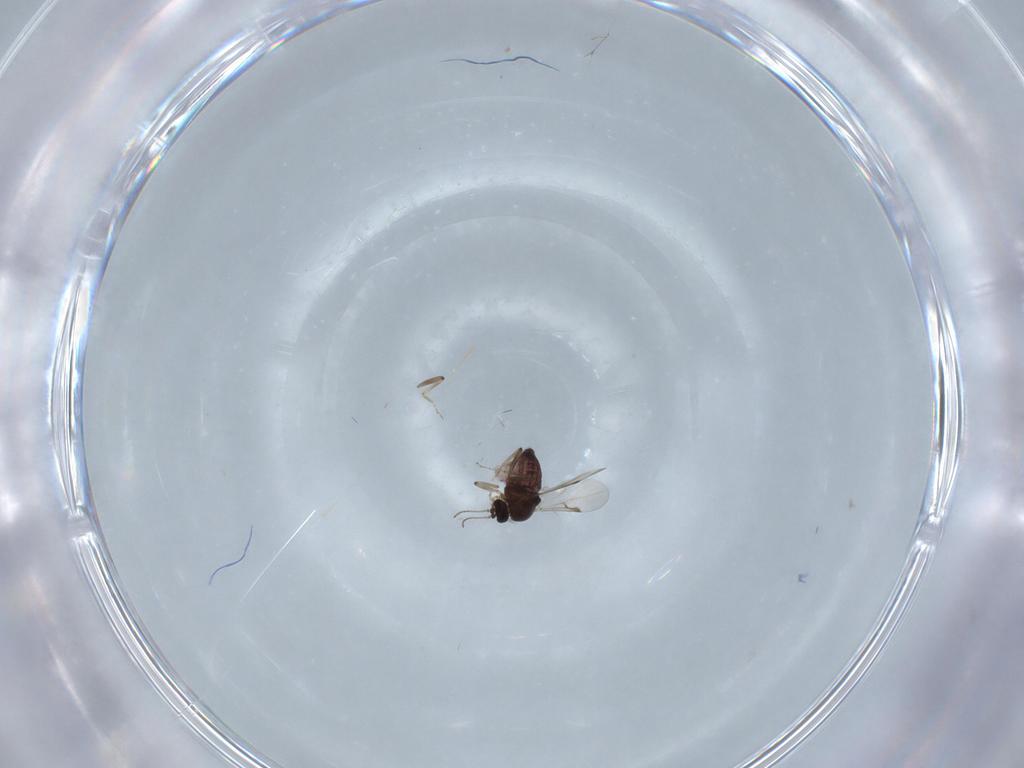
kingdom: Animalia
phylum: Arthropoda
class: Insecta
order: Diptera
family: Ceratopogonidae
